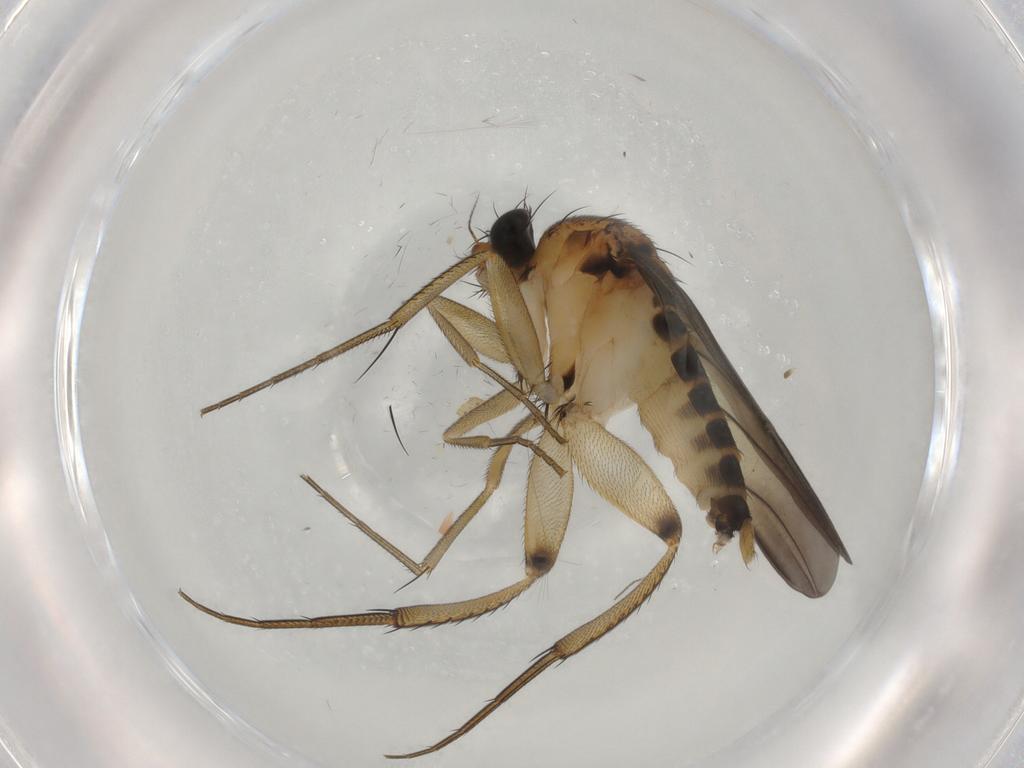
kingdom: Animalia
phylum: Arthropoda
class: Insecta
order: Diptera
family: Phoridae
